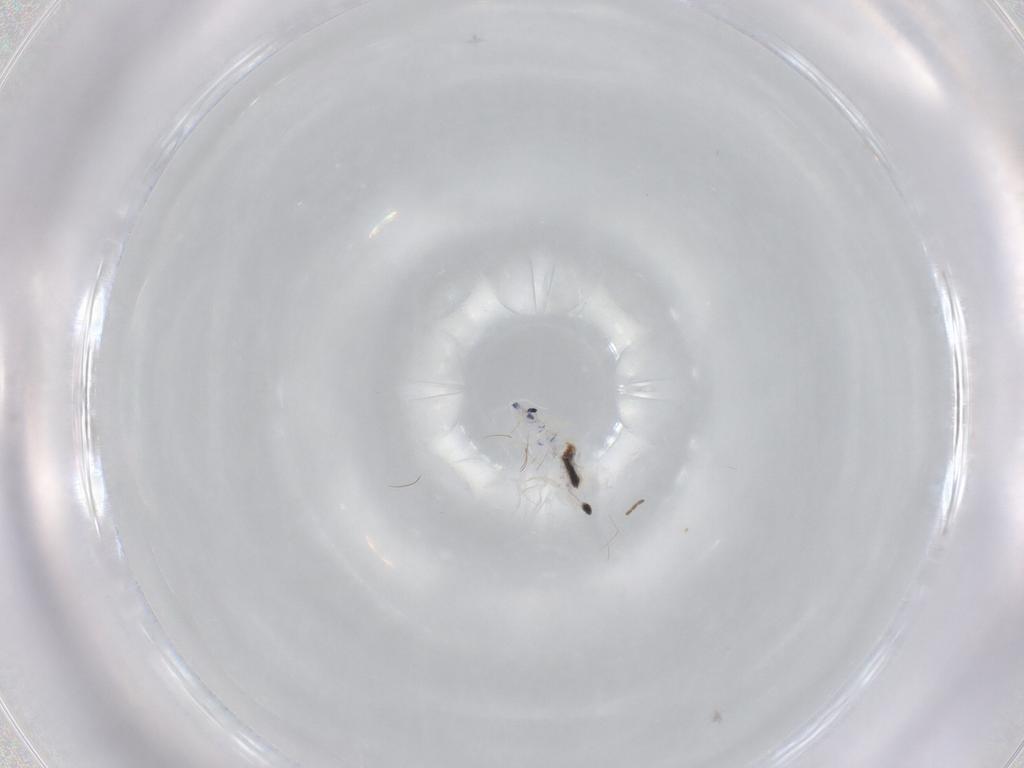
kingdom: Animalia
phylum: Arthropoda
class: Collembola
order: Entomobryomorpha
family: Entomobryidae
